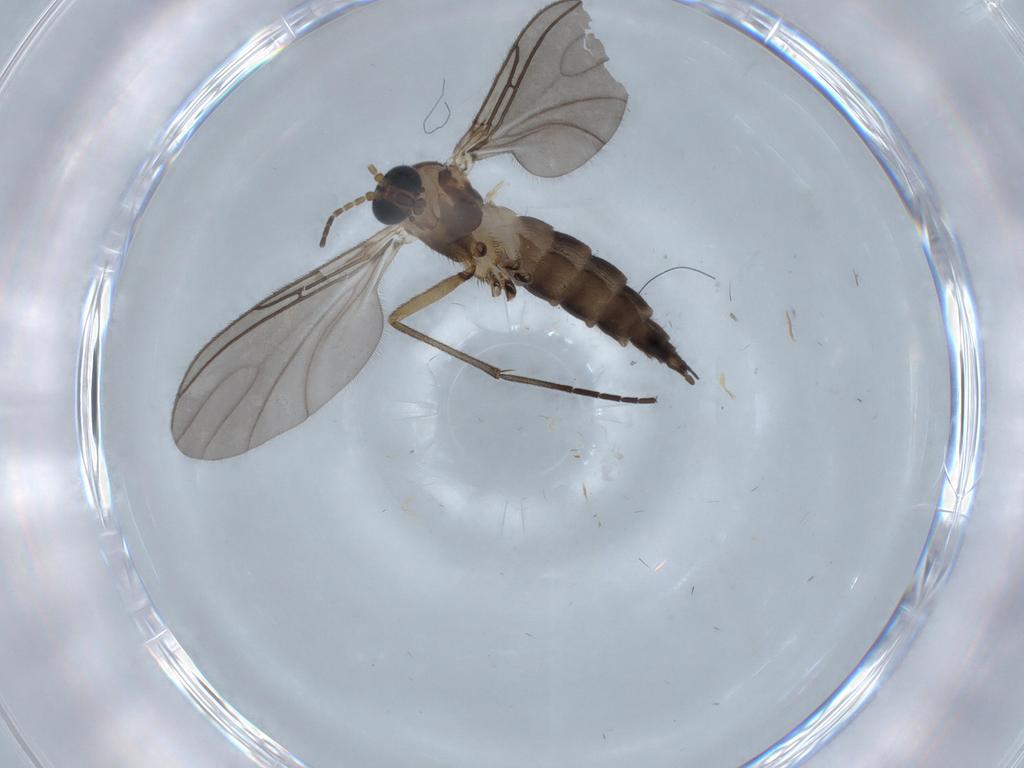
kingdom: Animalia
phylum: Arthropoda
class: Insecta
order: Diptera
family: Sciaridae
